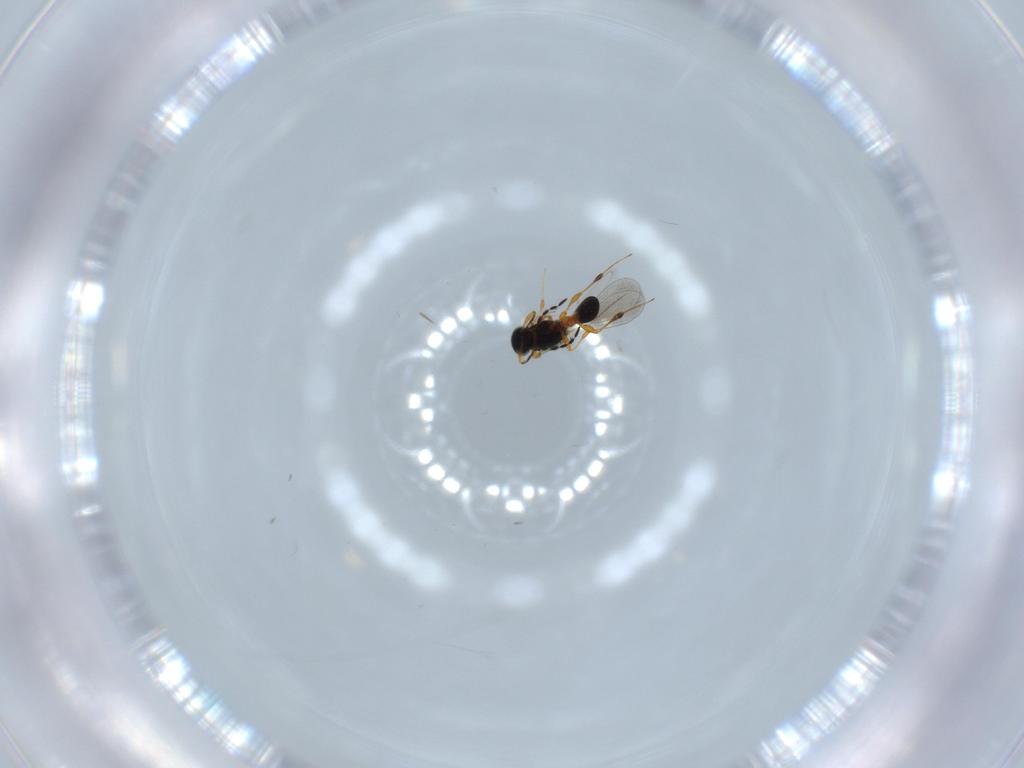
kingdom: Animalia
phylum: Arthropoda
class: Insecta
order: Hymenoptera
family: Platygastridae
